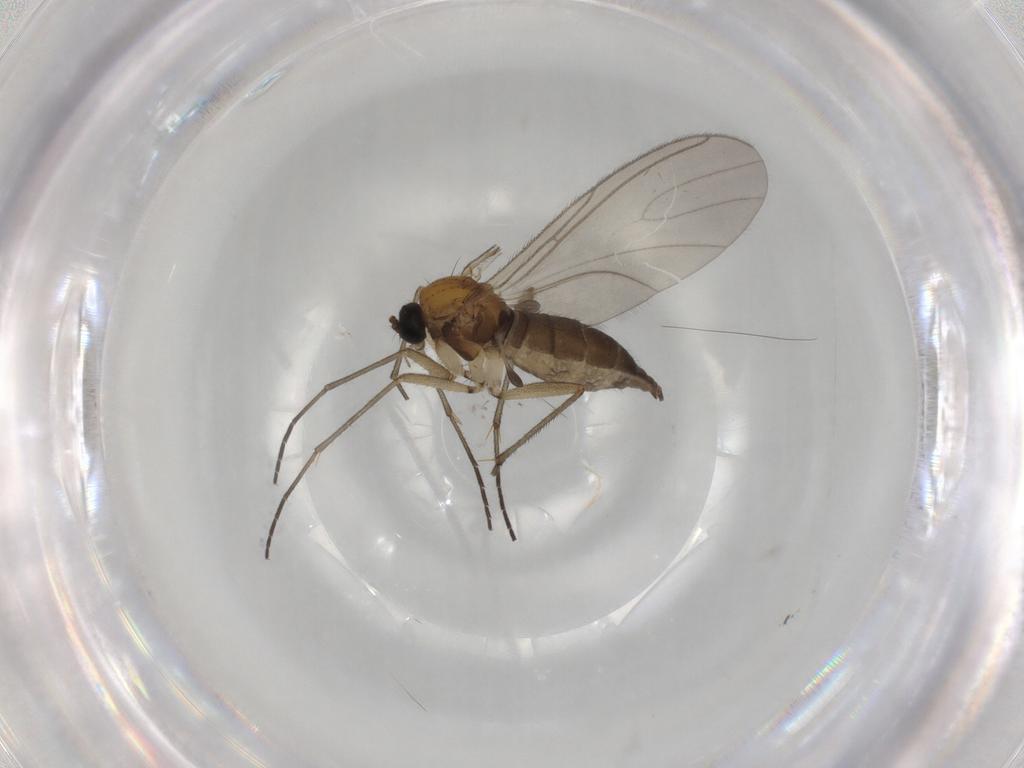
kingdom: Animalia
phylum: Arthropoda
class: Insecta
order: Diptera
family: Sciaridae
